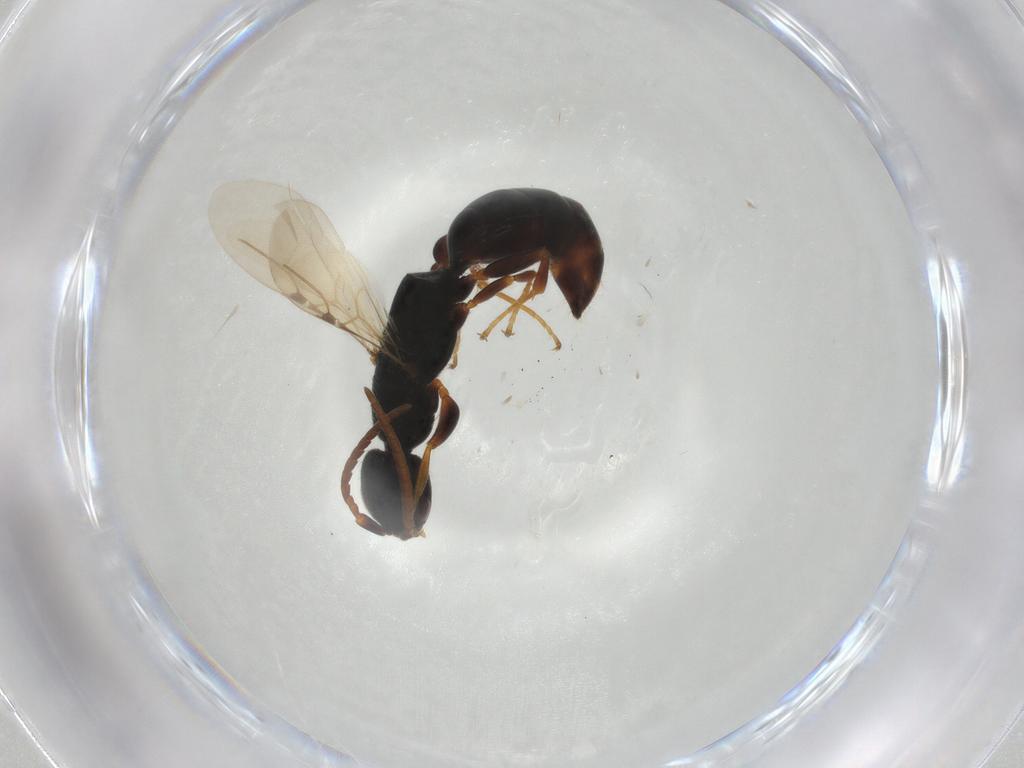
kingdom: Animalia
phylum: Arthropoda
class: Insecta
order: Hymenoptera
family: Bethylidae
